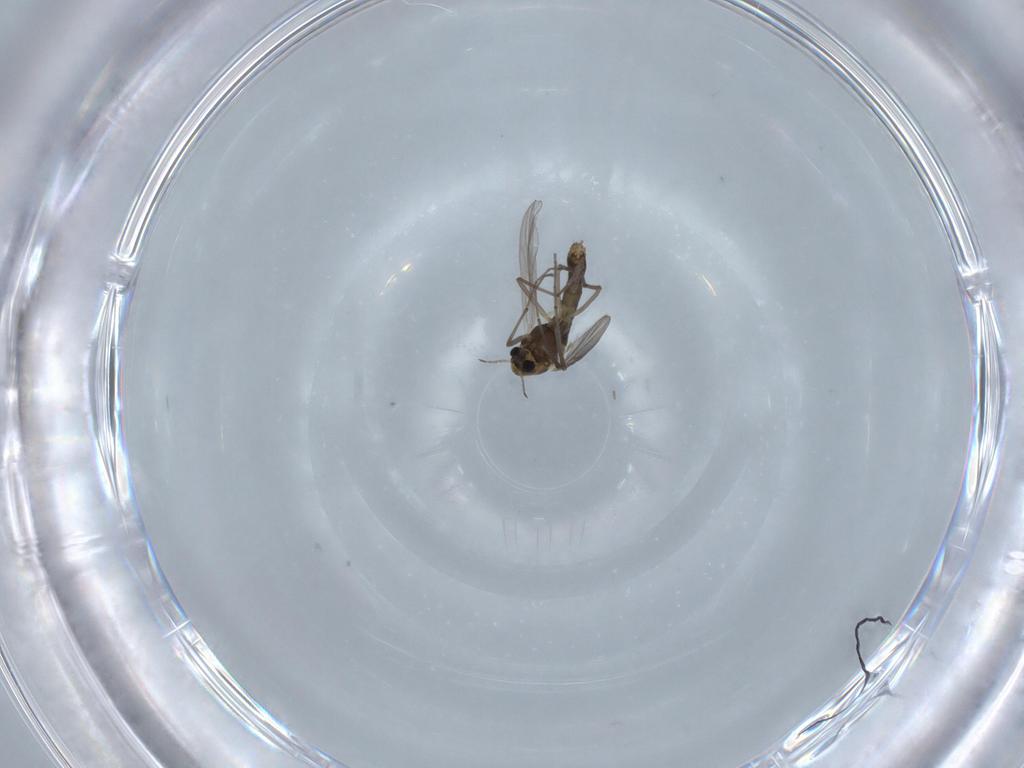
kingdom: Animalia
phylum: Arthropoda
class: Insecta
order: Diptera
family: Chironomidae
